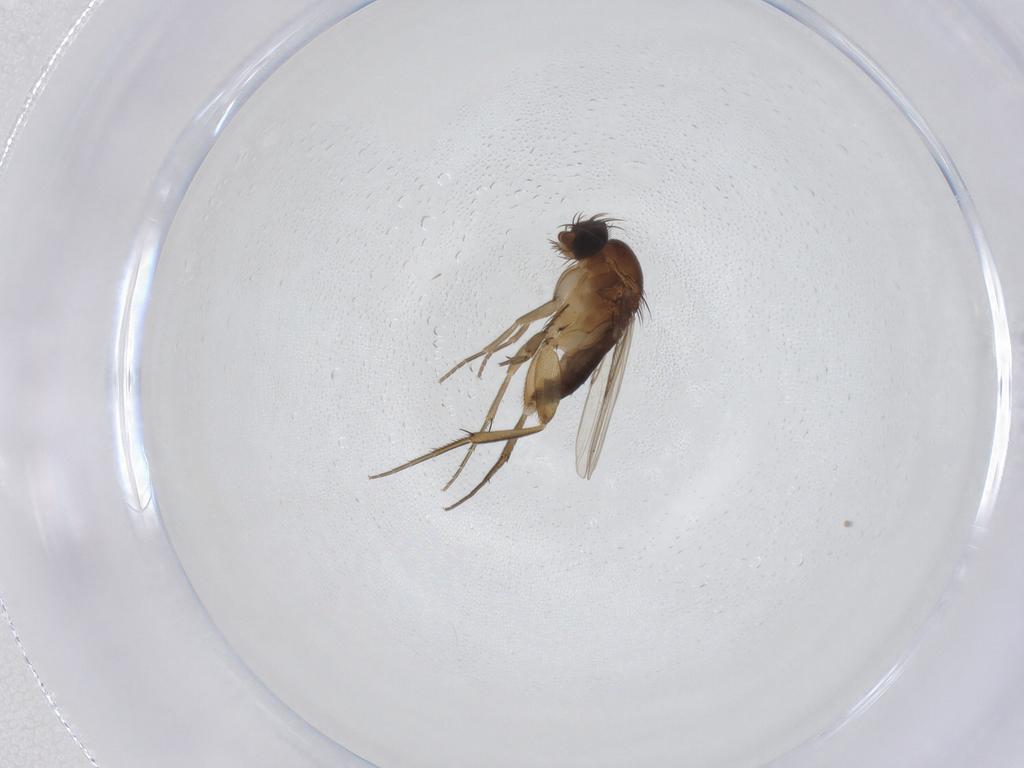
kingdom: Animalia
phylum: Arthropoda
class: Insecta
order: Diptera
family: Phoridae
